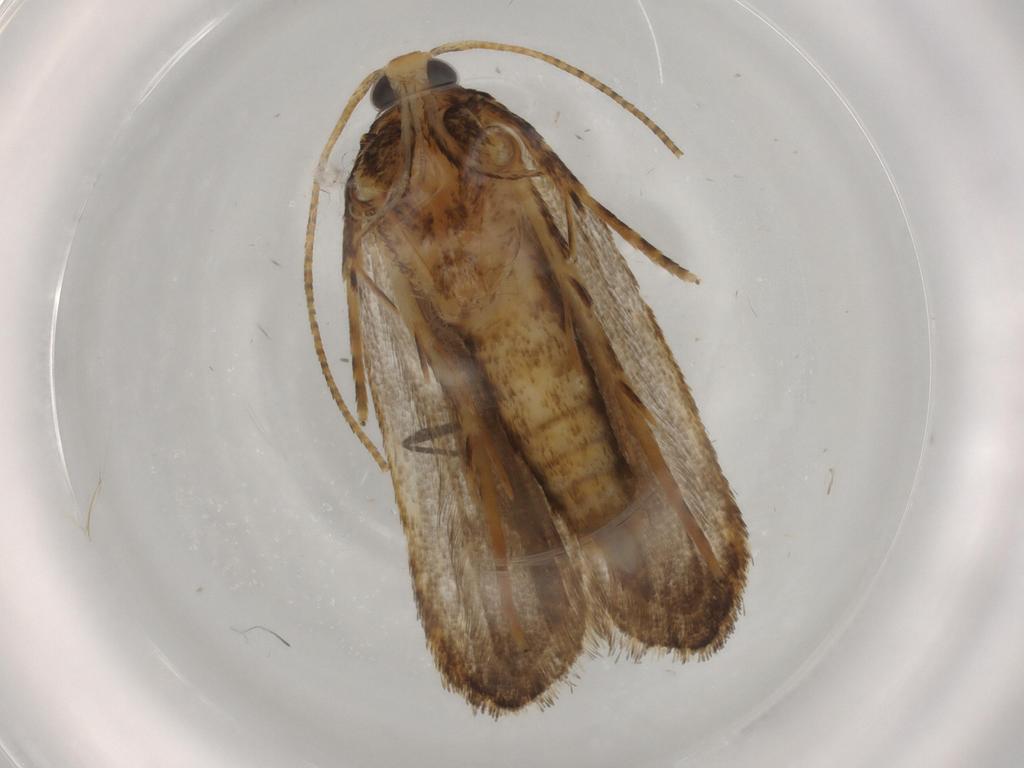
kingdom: Animalia
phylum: Arthropoda
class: Insecta
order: Lepidoptera
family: Autostichidae
